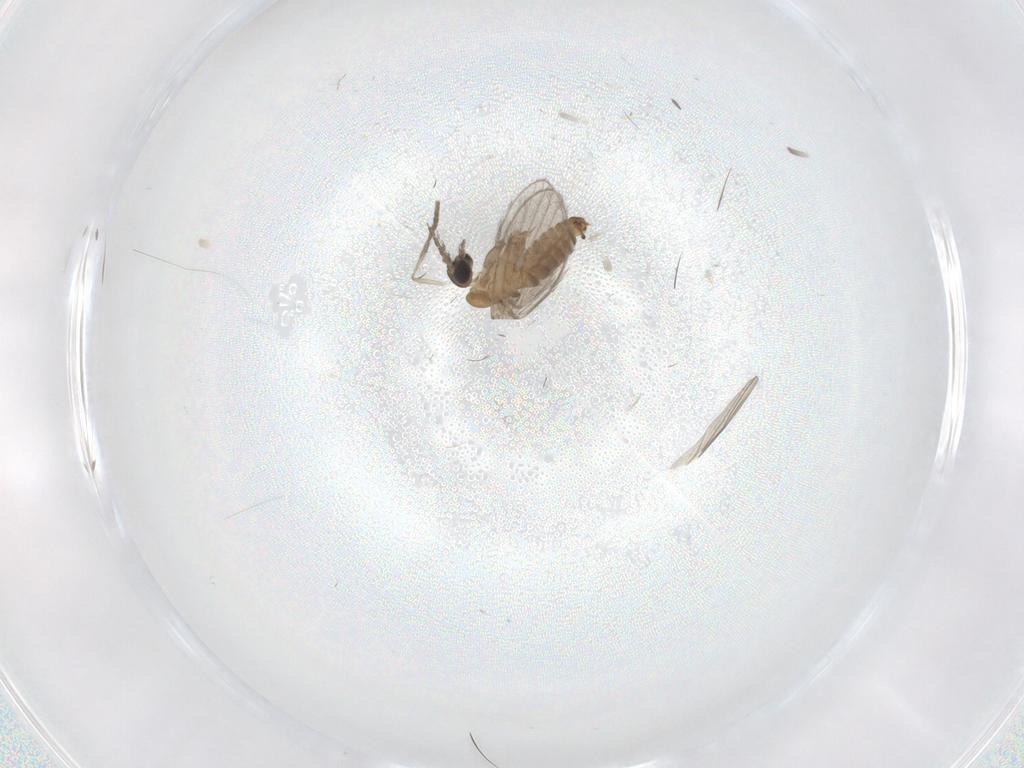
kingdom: Animalia
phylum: Arthropoda
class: Insecta
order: Diptera
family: Psychodidae
